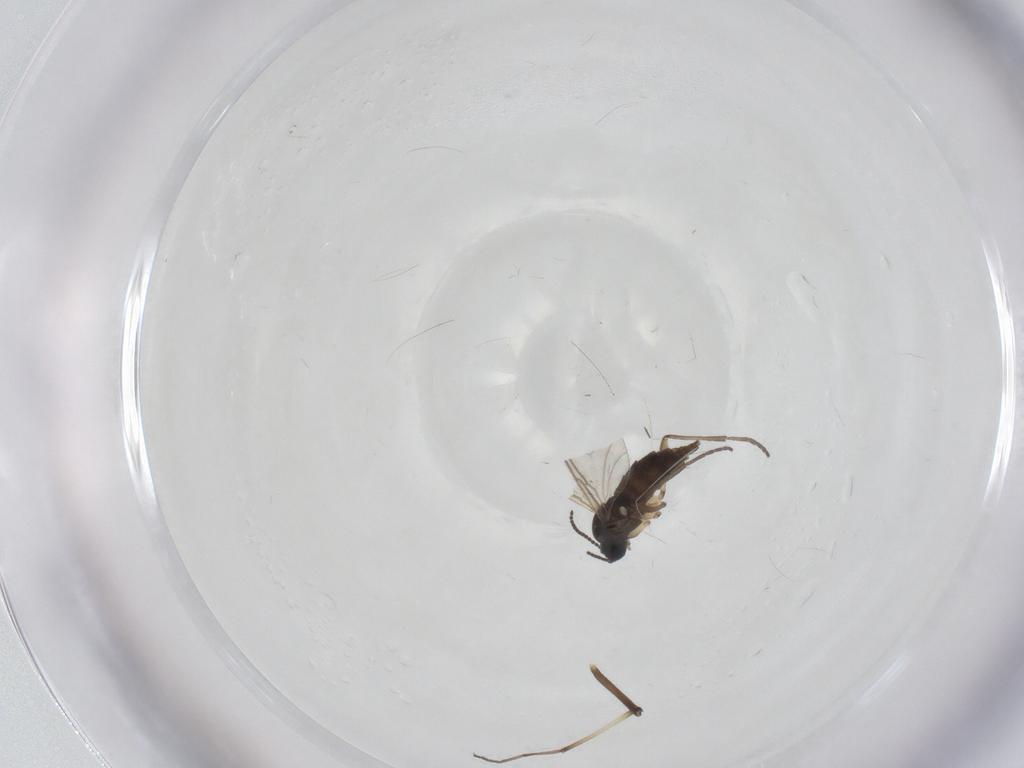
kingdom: Animalia
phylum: Arthropoda
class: Insecta
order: Diptera
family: Sciaridae
